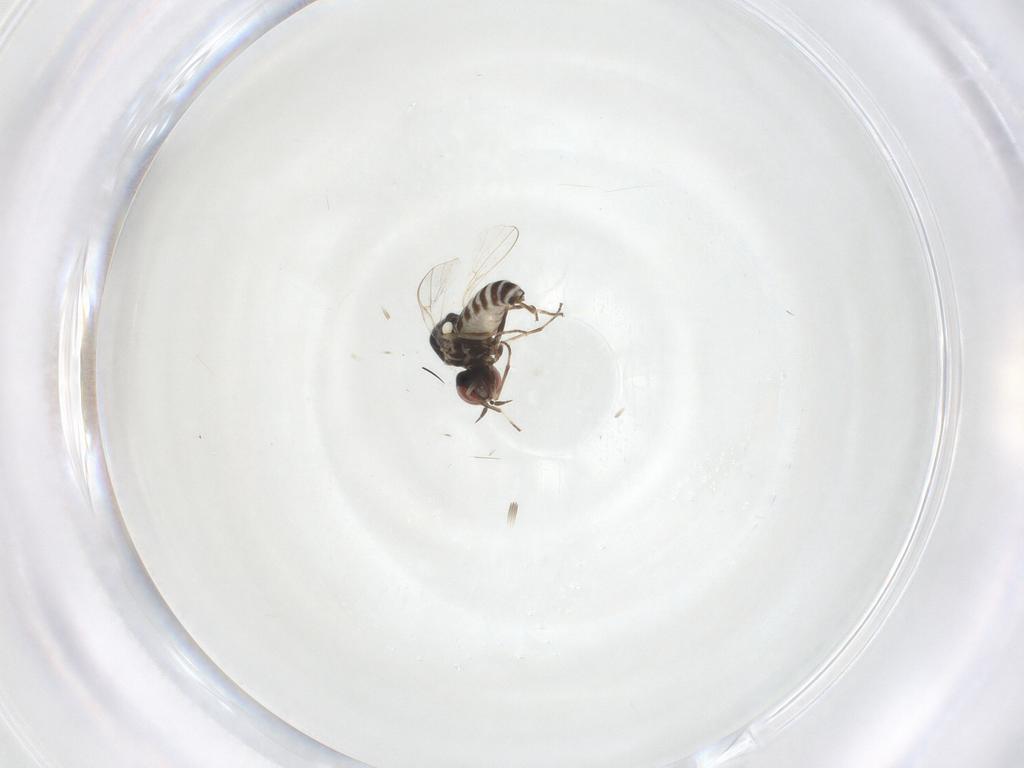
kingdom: Animalia
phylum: Arthropoda
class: Insecta
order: Diptera
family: Mythicomyiidae
